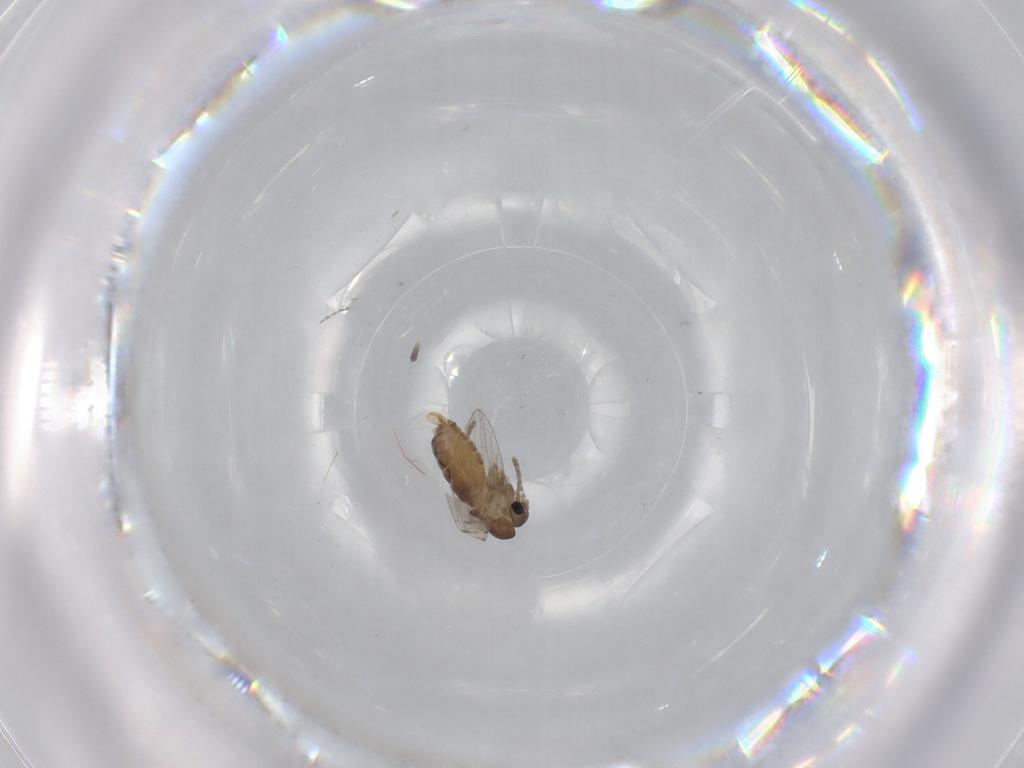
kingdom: Animalia
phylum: Arthropoda
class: Insecta
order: Diptera
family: Cecidomyiidae
